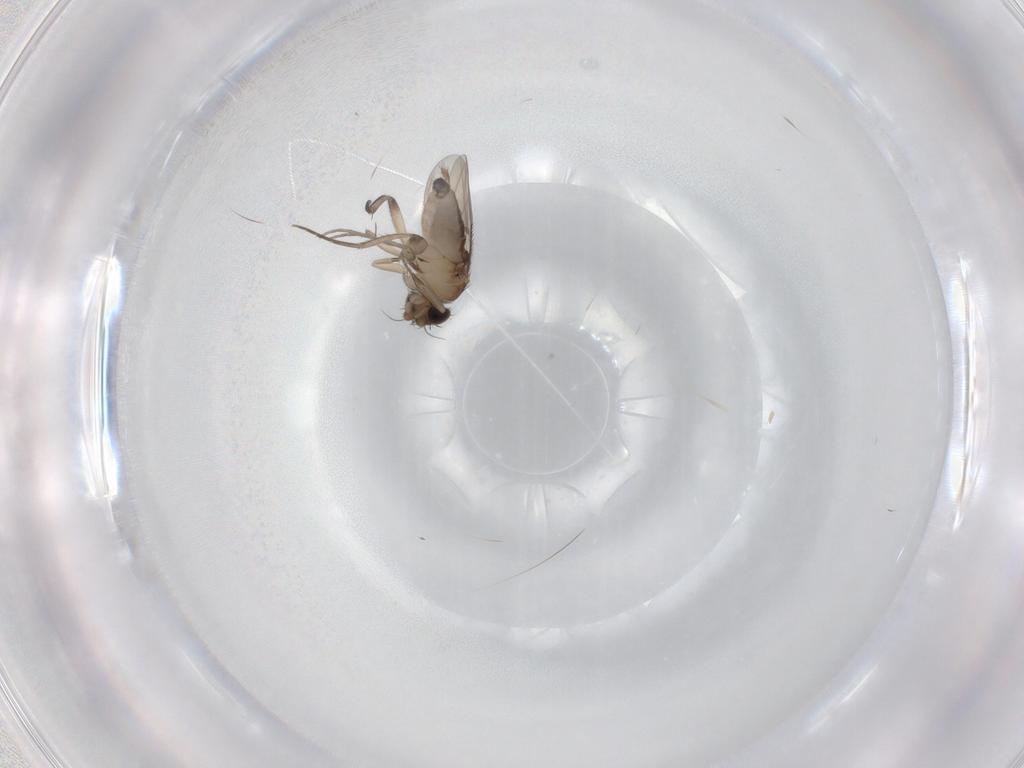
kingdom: Animalia
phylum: Arthropoda
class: Insecta
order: Diptera
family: Phoridae
